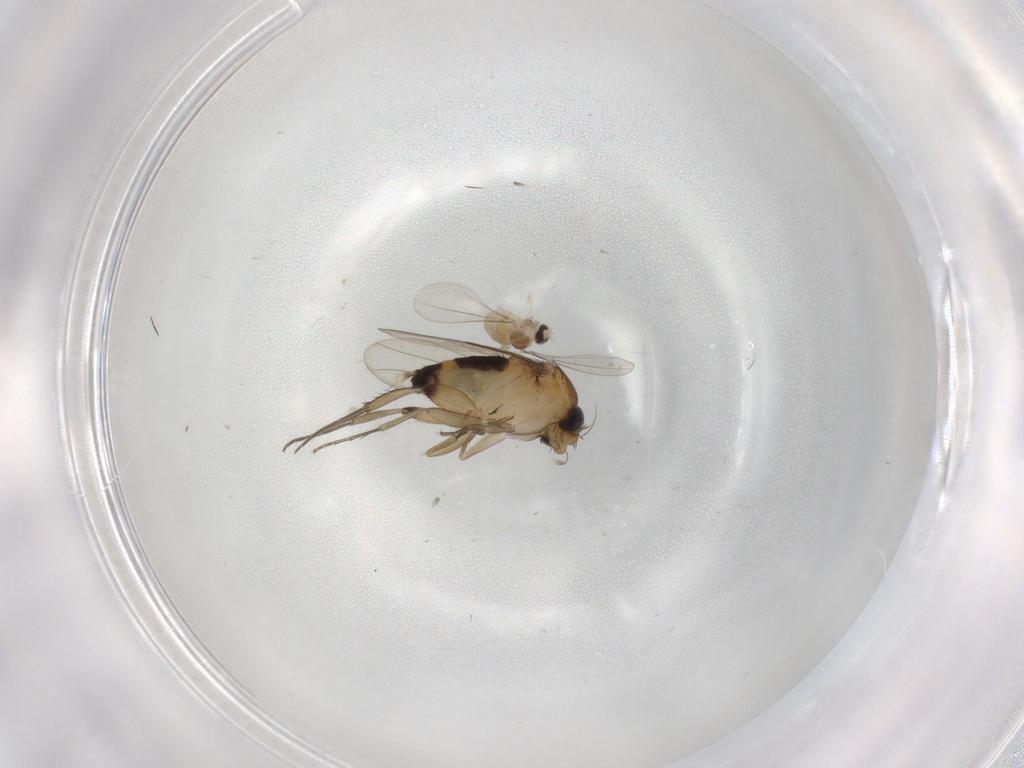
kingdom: Animalia
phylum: Arthropoda
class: Insecta
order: Diptera
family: Phoridae
